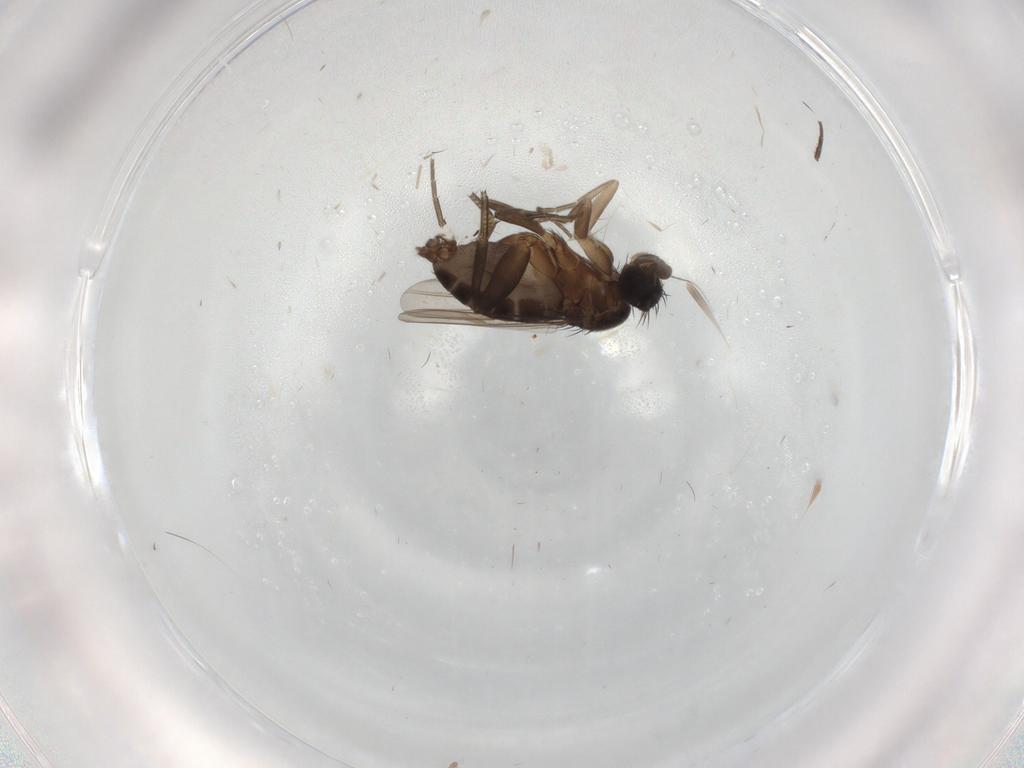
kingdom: Animalia
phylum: Arthropoda
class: Insecta
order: Diptera
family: Phoridae
